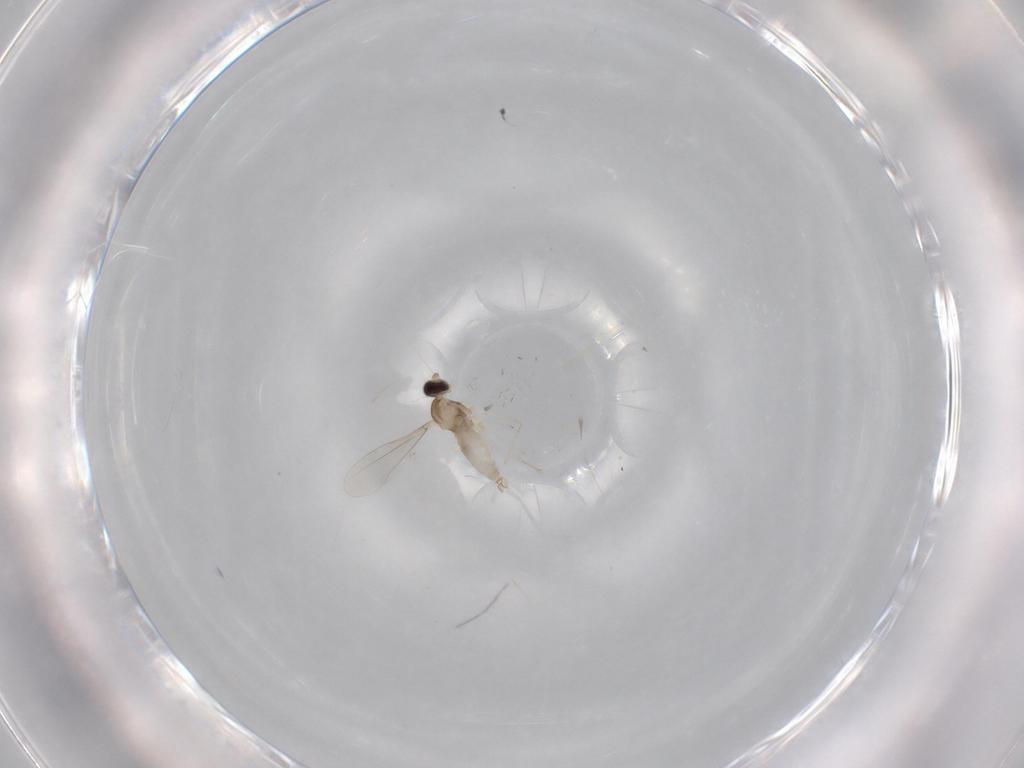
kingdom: Animalia
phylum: Arthropoda
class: Insecta
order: Diptera
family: Cecidomyiidae
